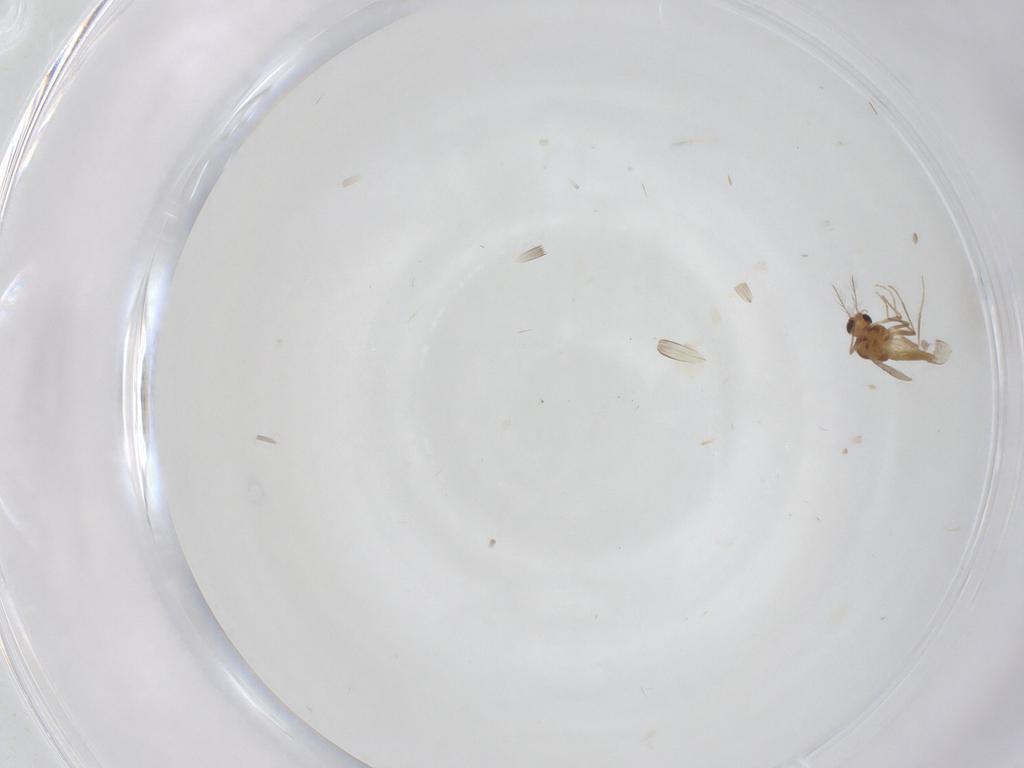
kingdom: Animalia
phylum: Arthropoda
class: Insecta
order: Diptera
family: Chironomidae
